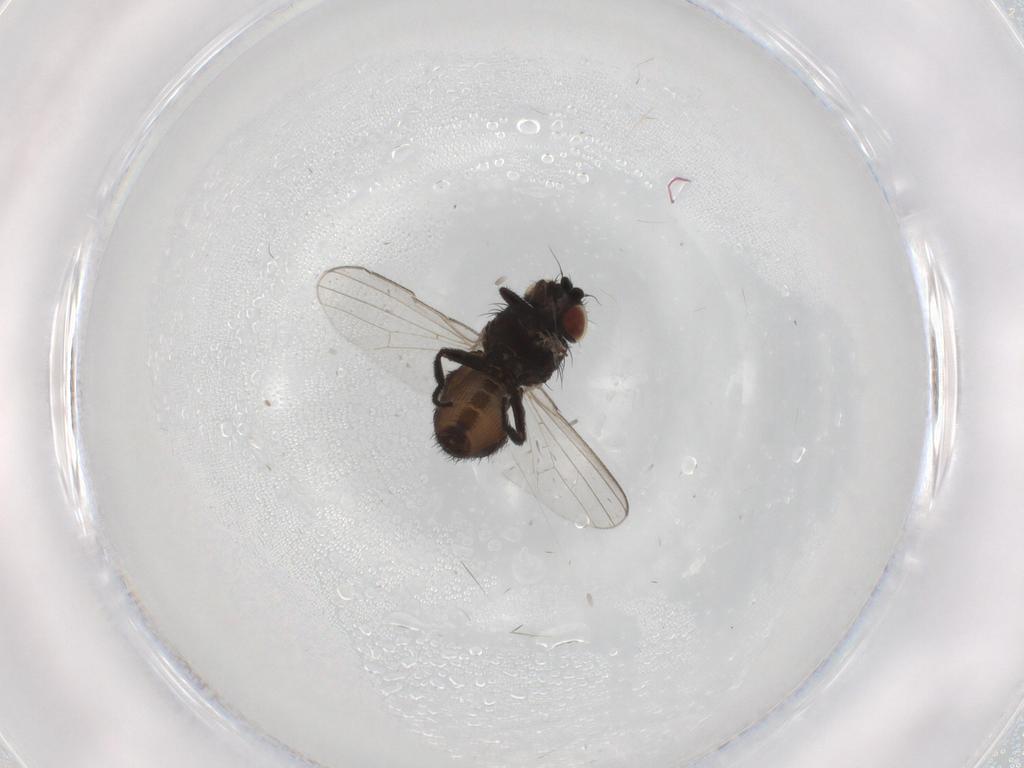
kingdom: Animalia
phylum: Arthropoda
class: Insecta
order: Diptera
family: Milichiidae
